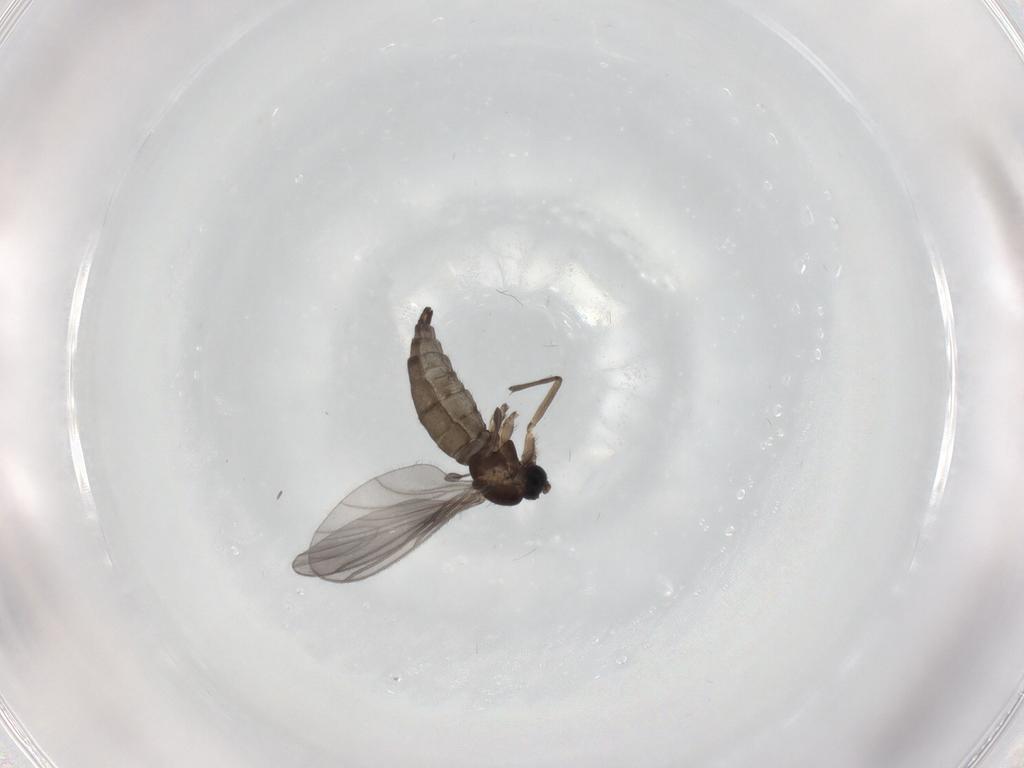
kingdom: Animalia
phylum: Arthropoda
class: Insecta
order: Diptera
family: Sciaridae
